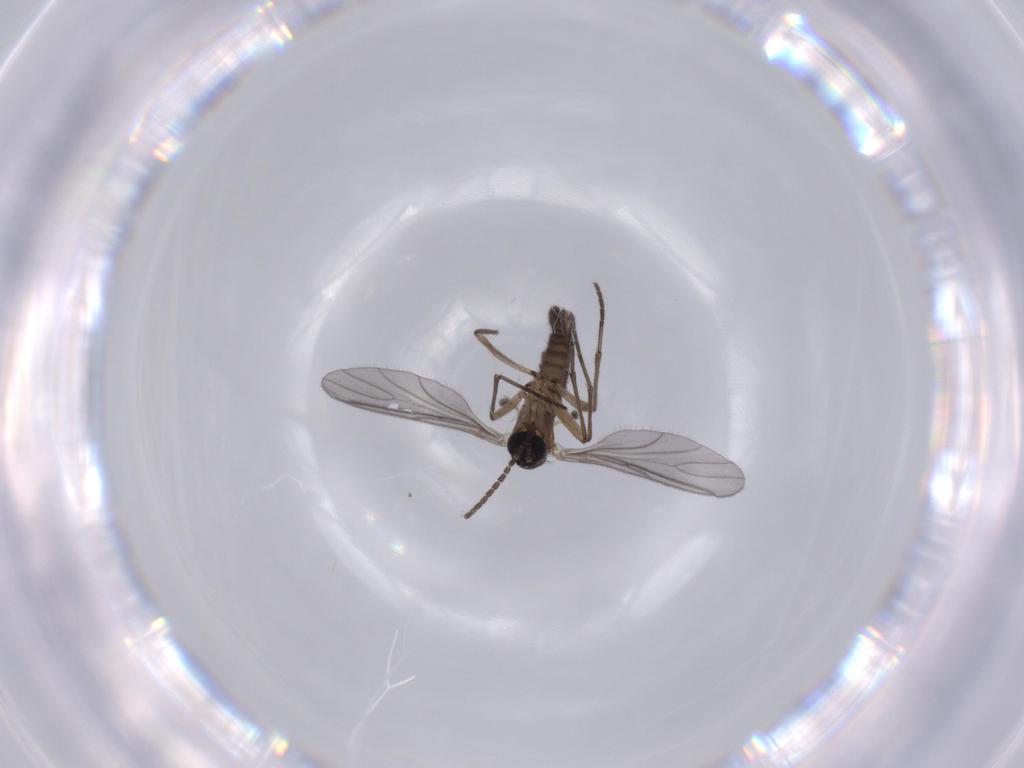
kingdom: Animalia
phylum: Arthropoda
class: Insecta
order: Diptera
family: Sciaridae
